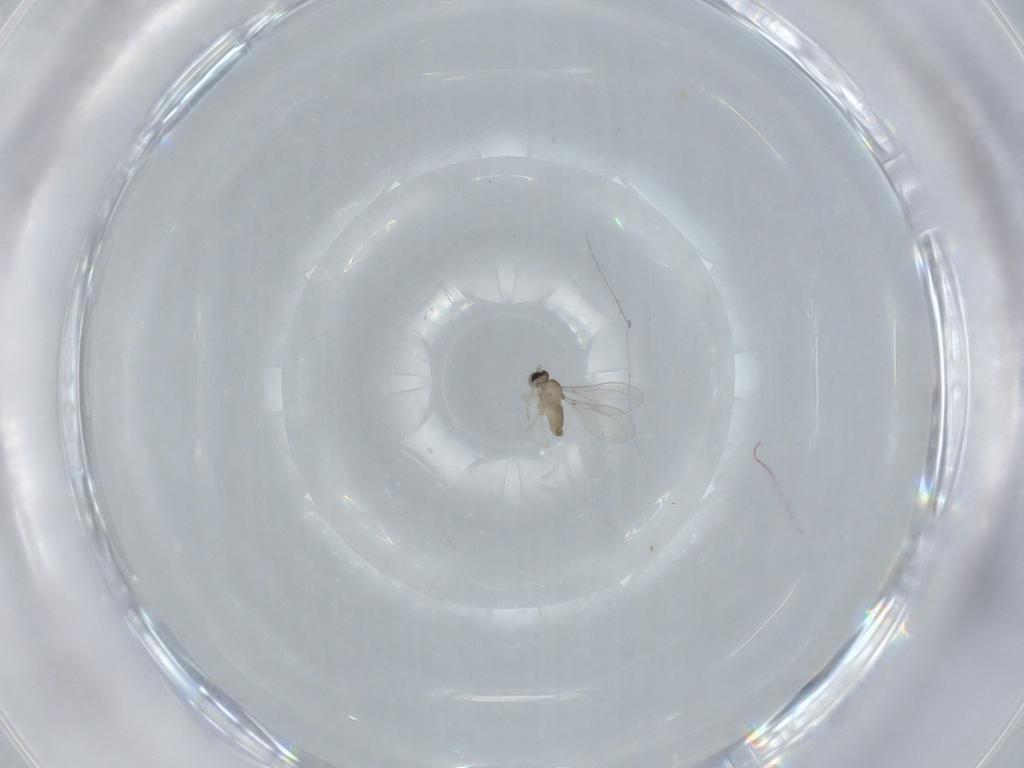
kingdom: Animalia
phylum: Arthropoda
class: Insecta
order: Diptera
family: Cecidomyiidae
